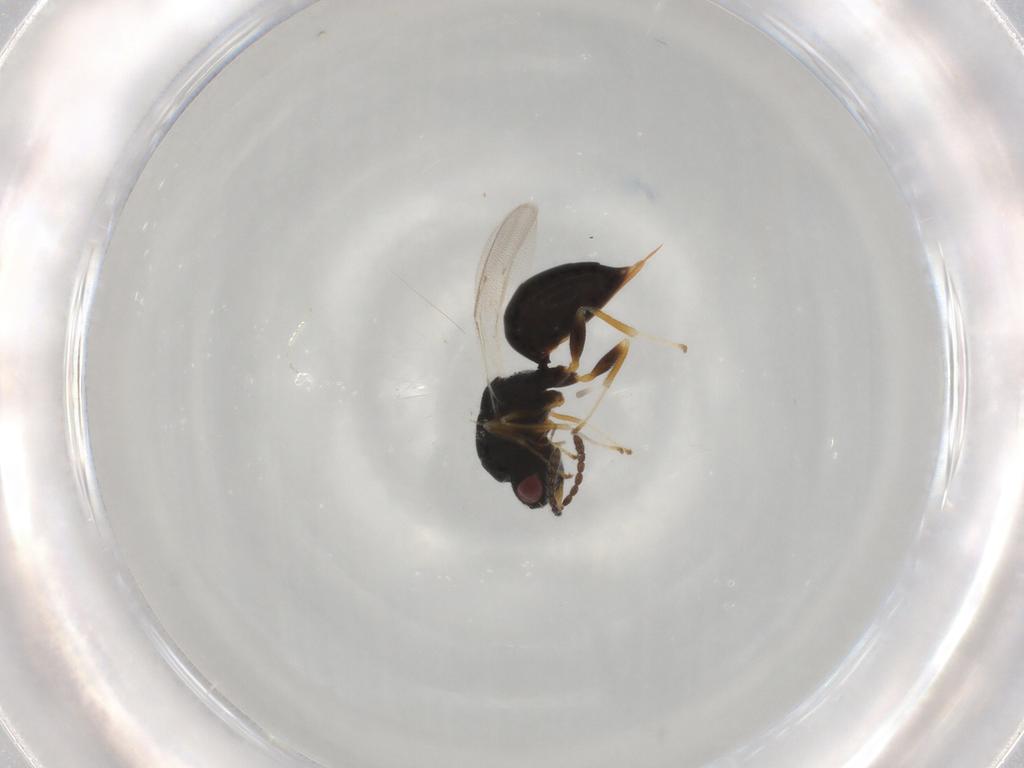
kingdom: Animalia
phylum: Arthropoda
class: Insecta
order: Hymenoptera
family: Eurytomidae
